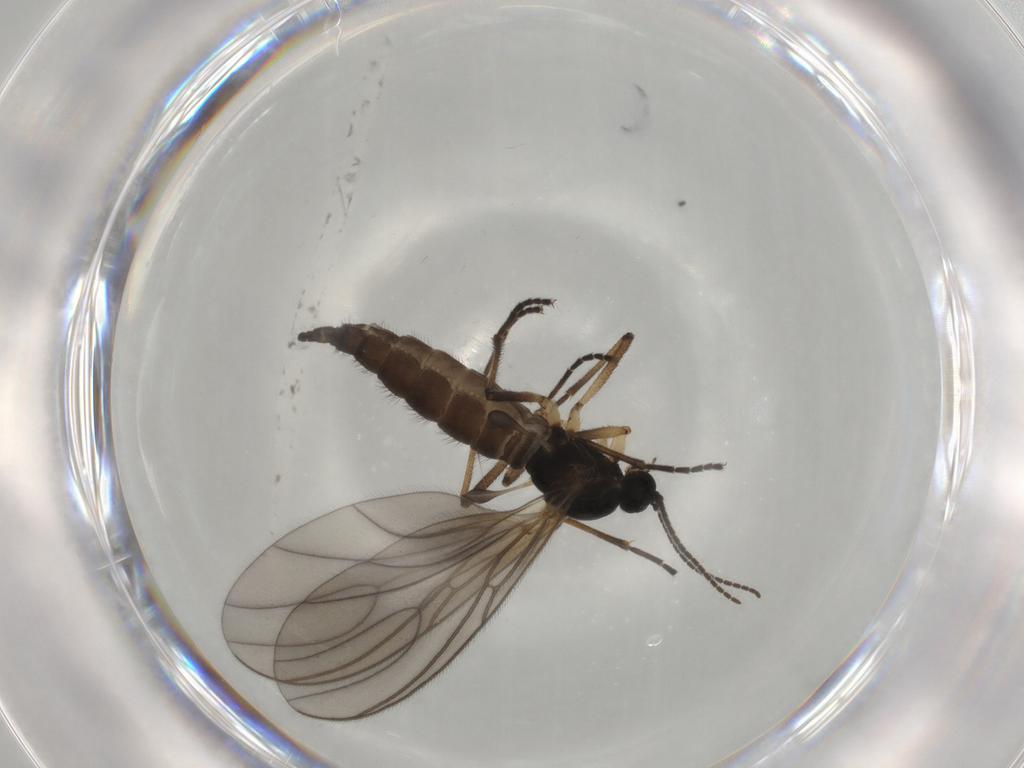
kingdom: Animalia
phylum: Arthropoda
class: Insecta
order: Diptera
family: Sciaridae
